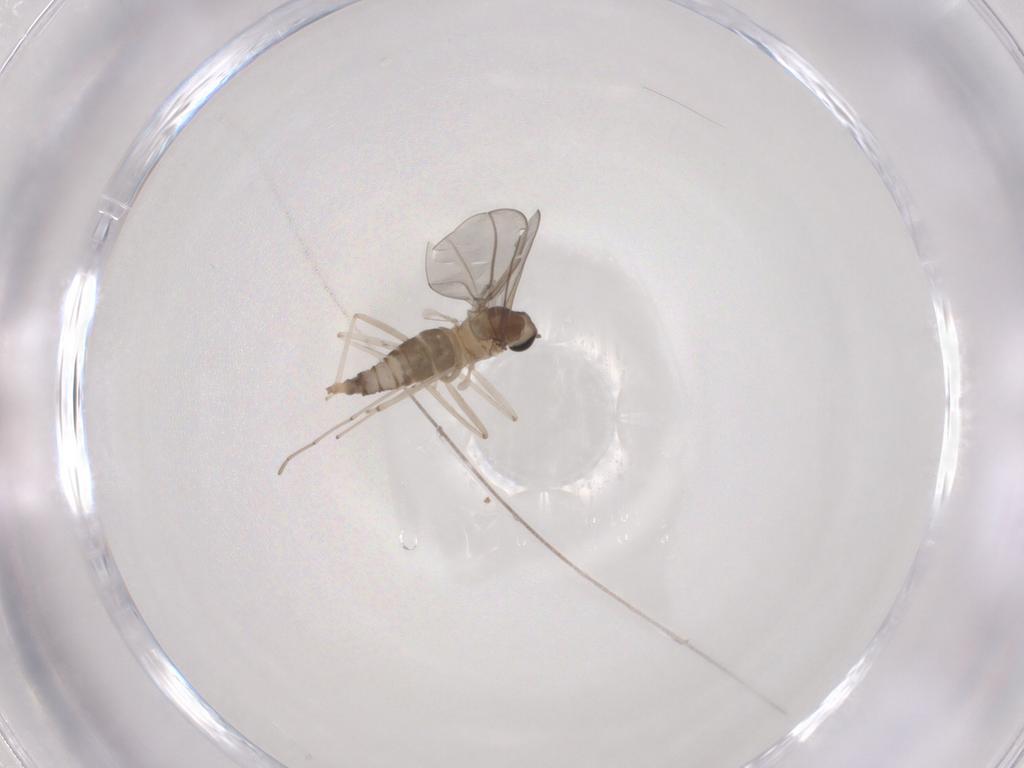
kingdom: Animalia
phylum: Arthropoda
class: Insecta
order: Diptera
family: Cecidomyiidae
